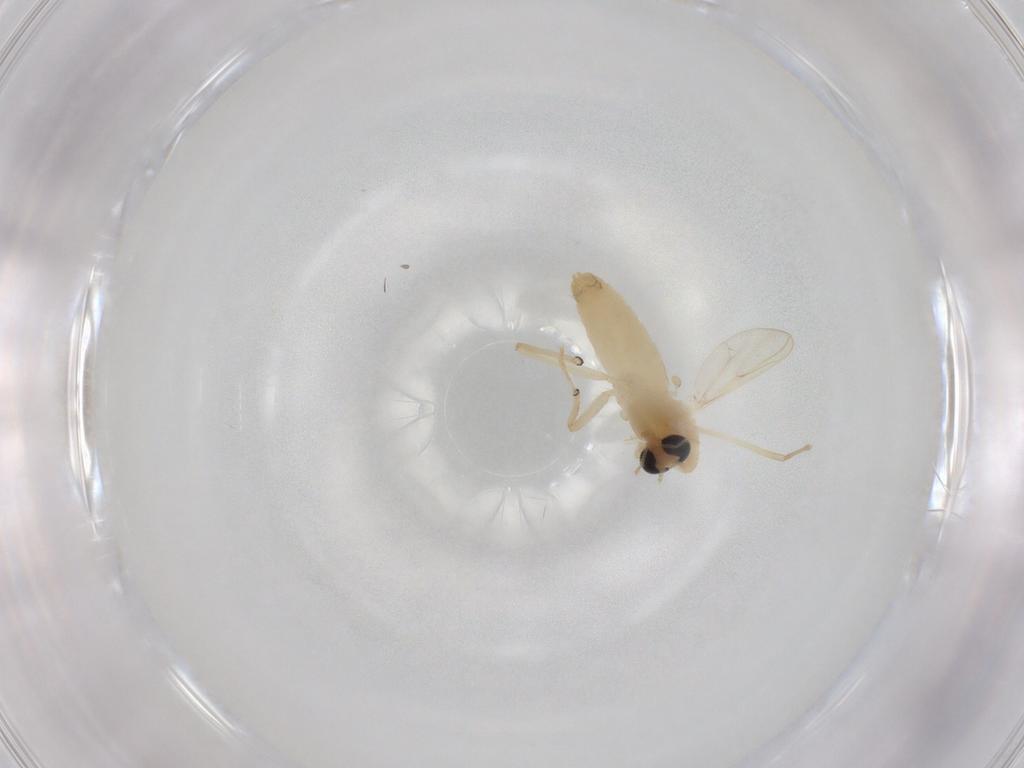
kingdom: Animalia
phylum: Arthropoda
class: Insecta
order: Diptera
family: Chironomidae
